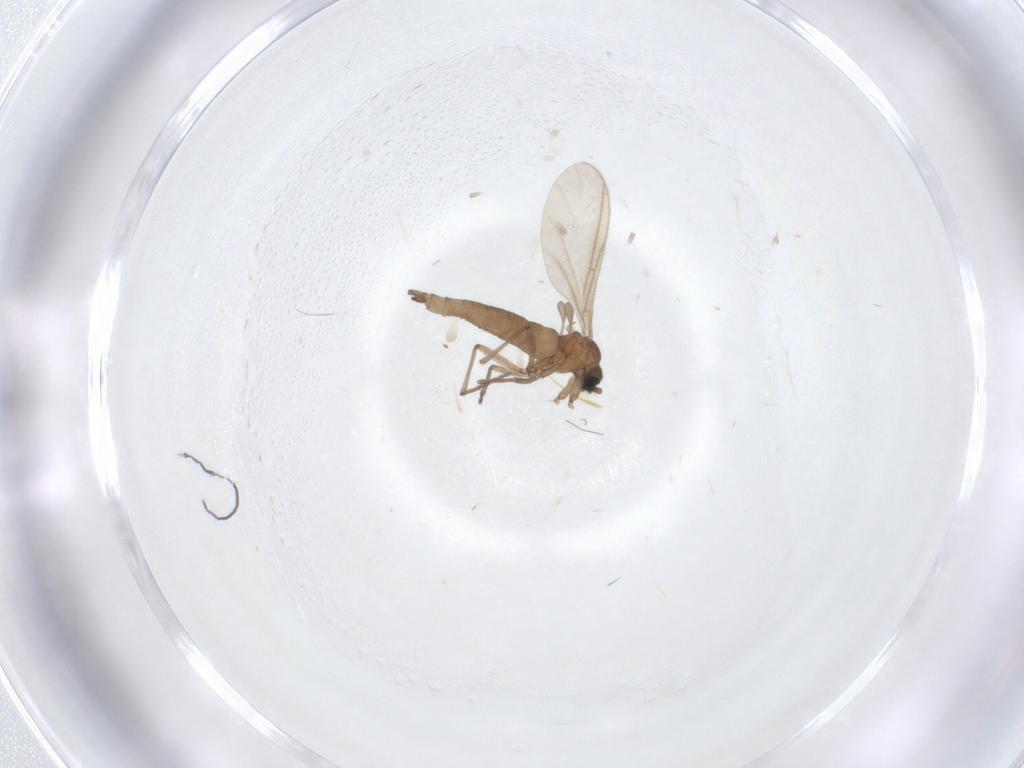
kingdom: Animalia
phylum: Arthropoda
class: Insecta
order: Diptera
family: Sciaridae
